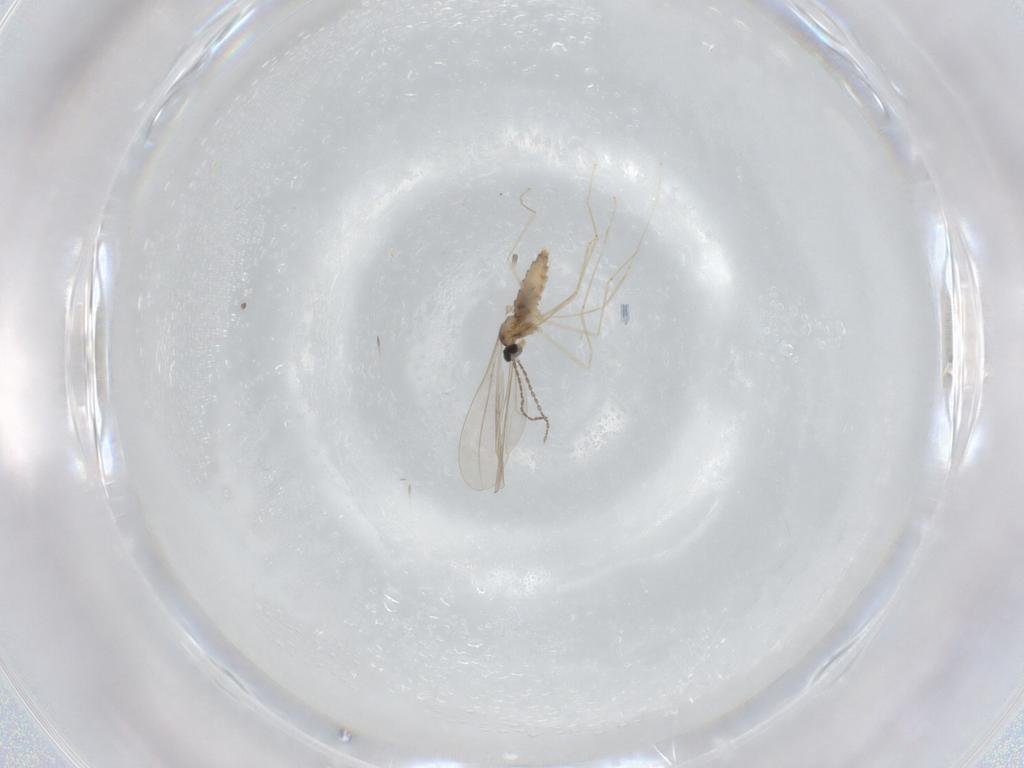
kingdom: Animalia
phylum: Arthropoda
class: Insecta
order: Diptera
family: Cecidomyiidae
